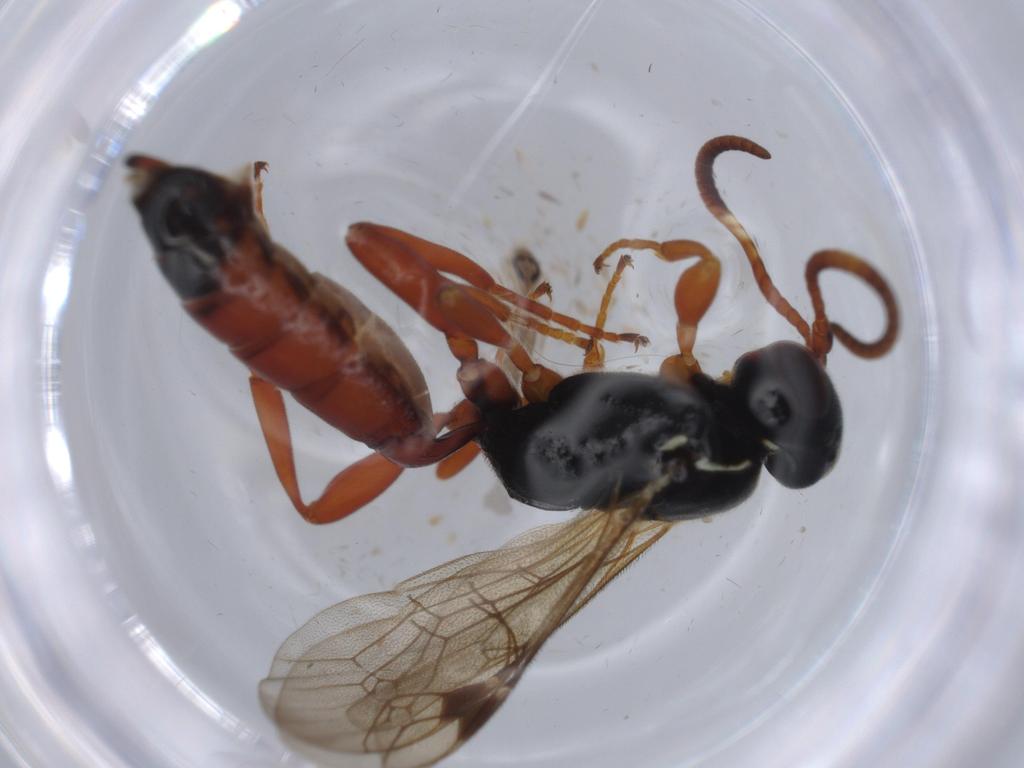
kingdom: Animalia
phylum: Arthropoda
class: Insecta
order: Hymenoptera
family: Ichneumonidae
